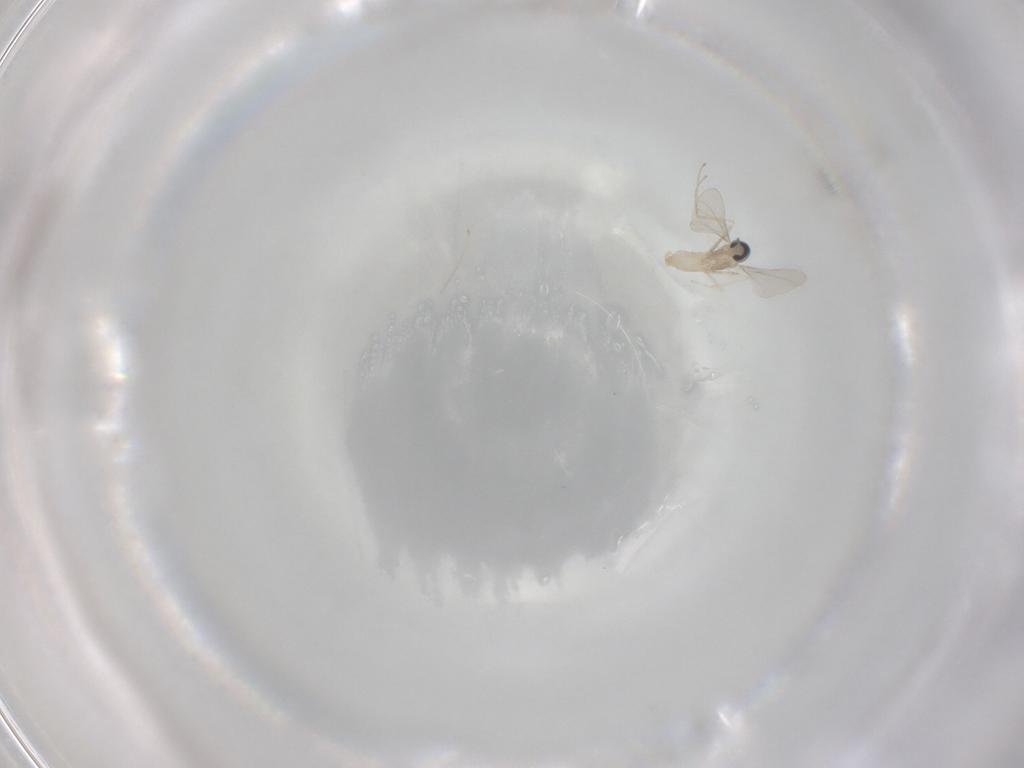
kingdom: Animalia
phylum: Arthropoda
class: Insecta
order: Diptera
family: Cecidomyiidae
